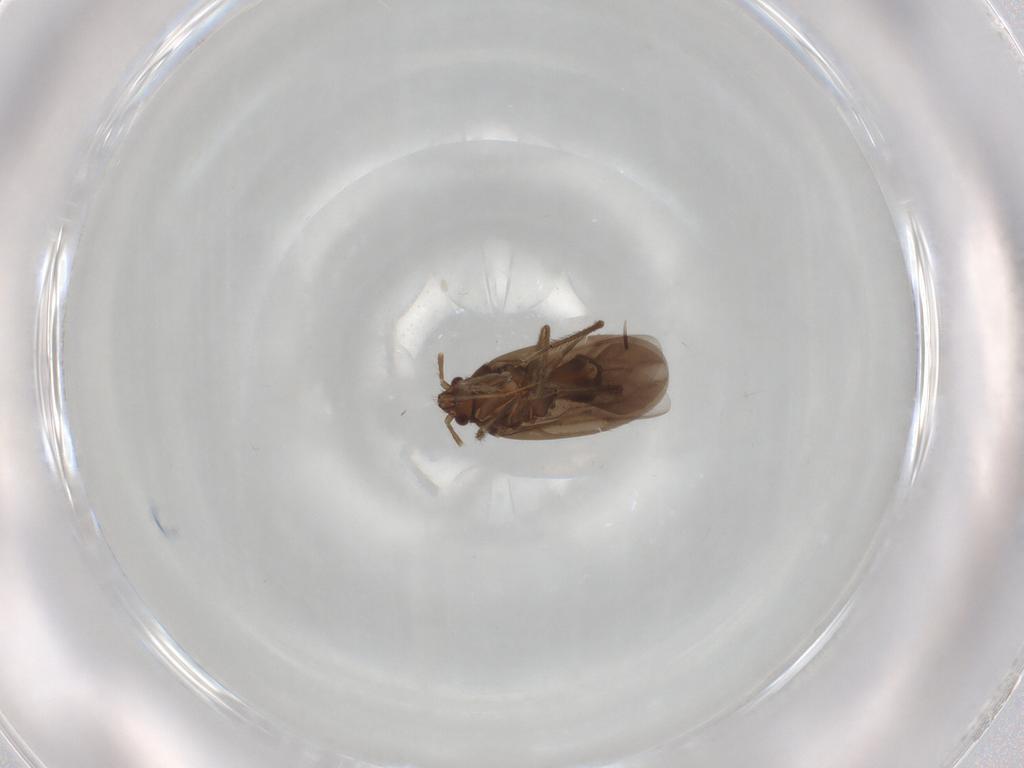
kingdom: Animalia
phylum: Arthropoda
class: Insecta
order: Hemiptera
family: Ceratocombidae
